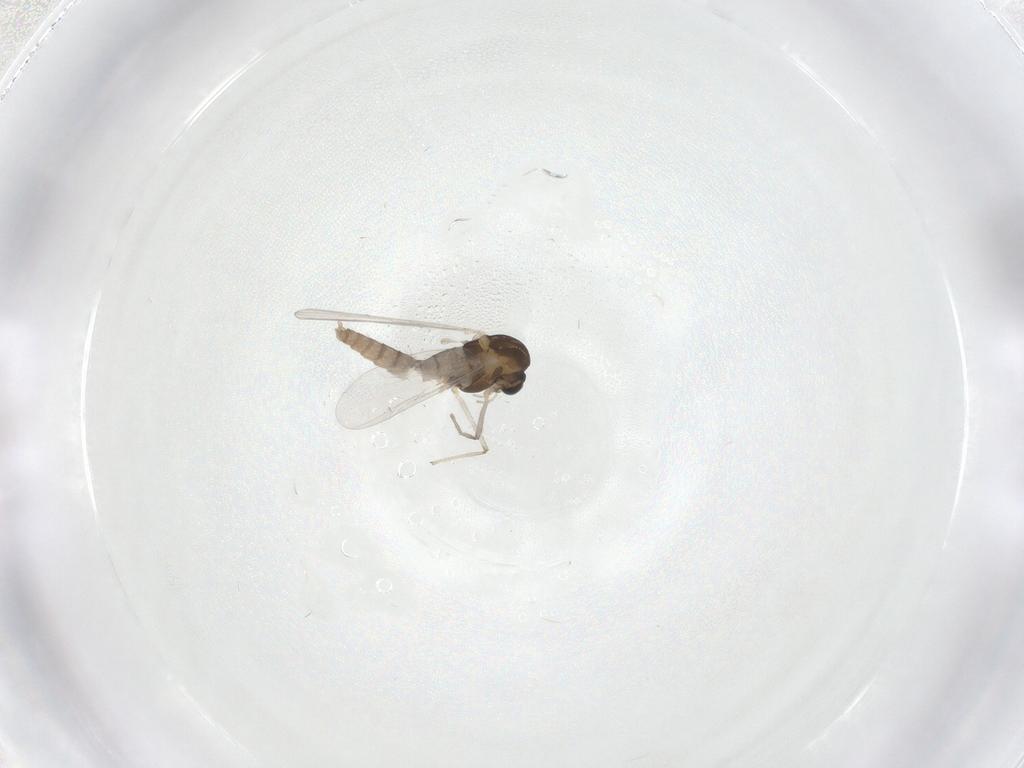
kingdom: Animalia
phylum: Arthropoda
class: Insecta
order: Diptera
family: Chironomidae
